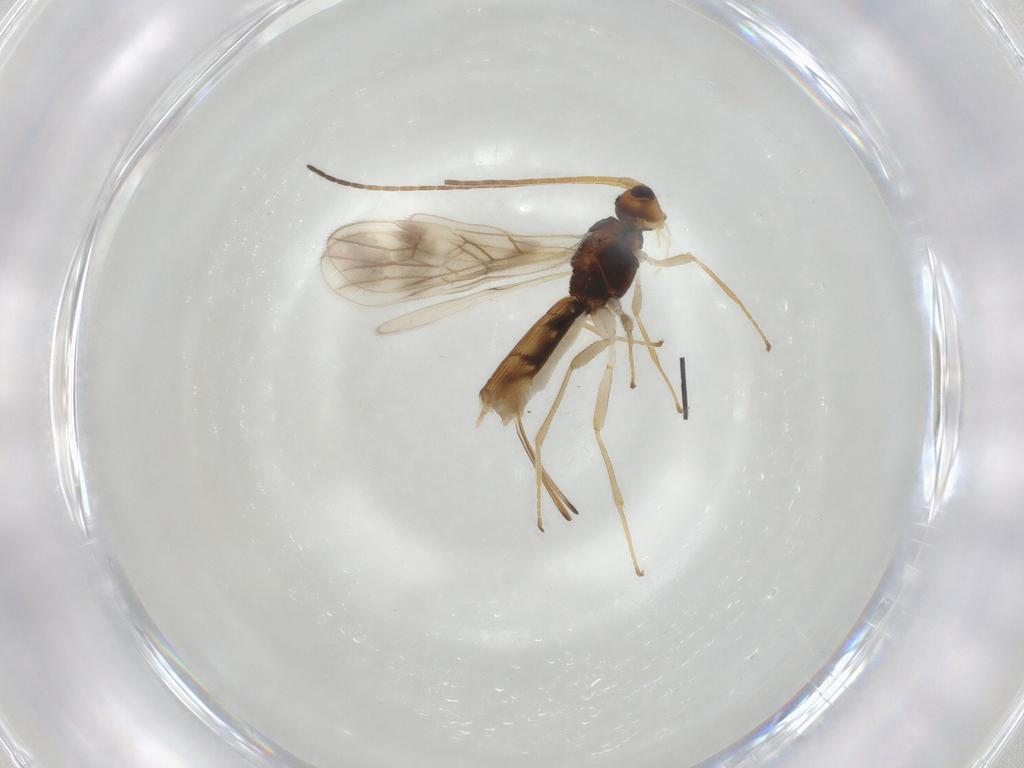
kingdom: Animalia
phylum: Arthropoda
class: Insecta
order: Hymenoptera
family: Braconidae
